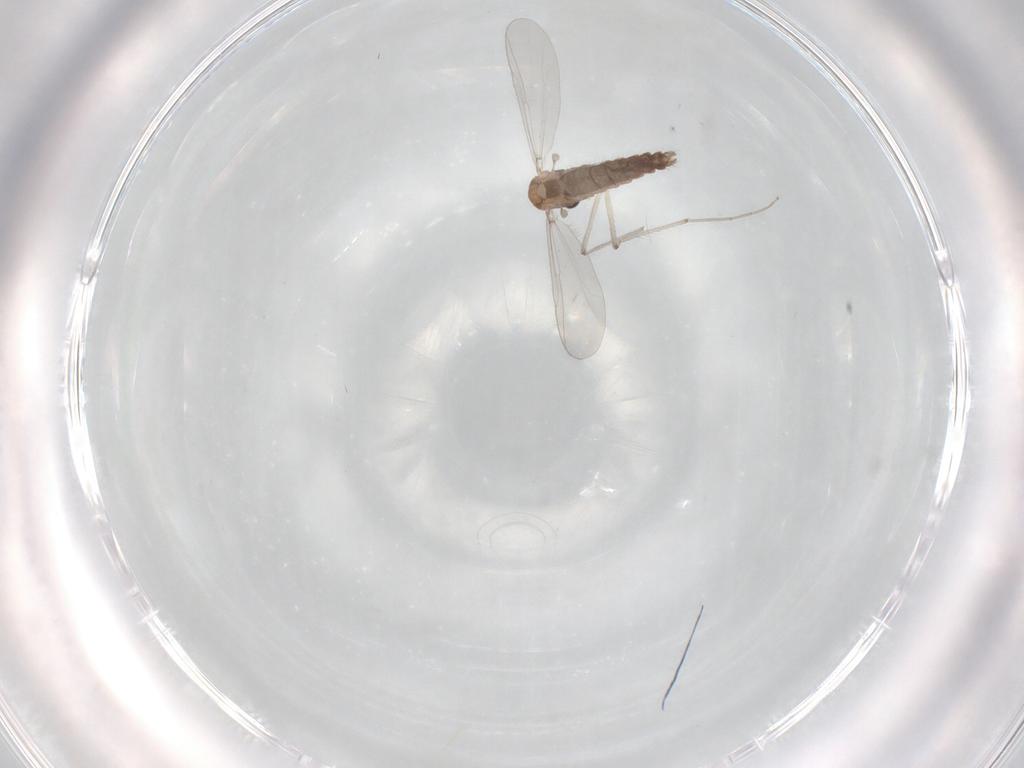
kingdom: Animalia
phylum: Arthropoda
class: Insecta
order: Diptera
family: Chironomidae
